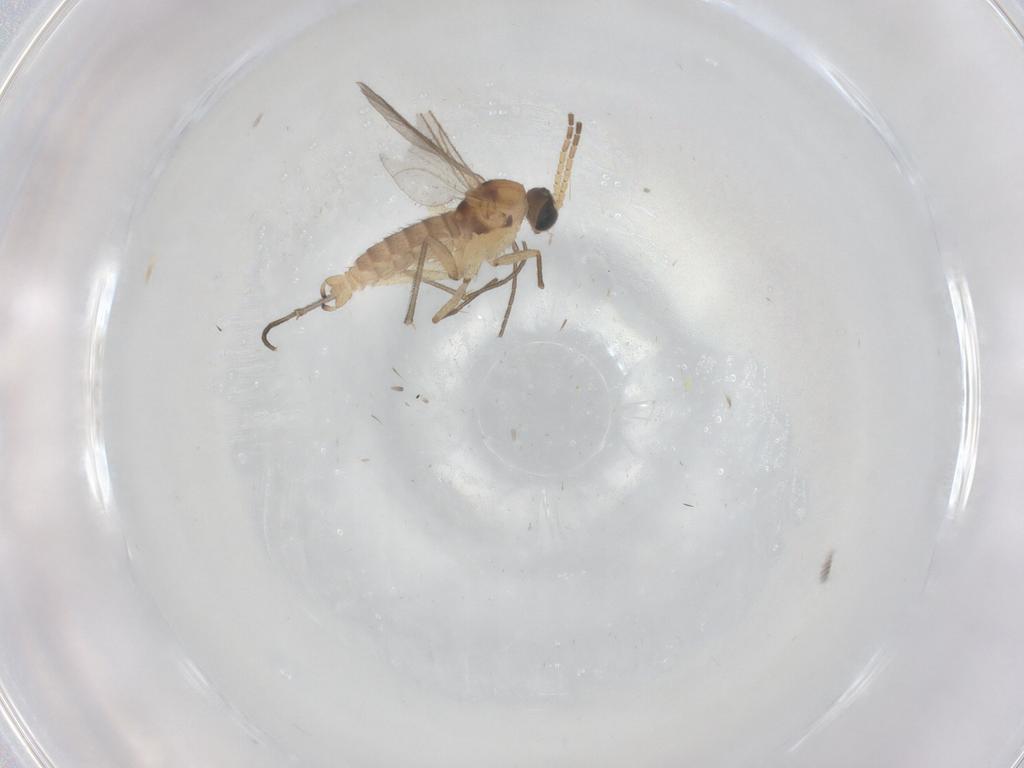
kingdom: Animalia
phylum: Arthropoda
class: Insecta
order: Diptera
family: Sciaridae
